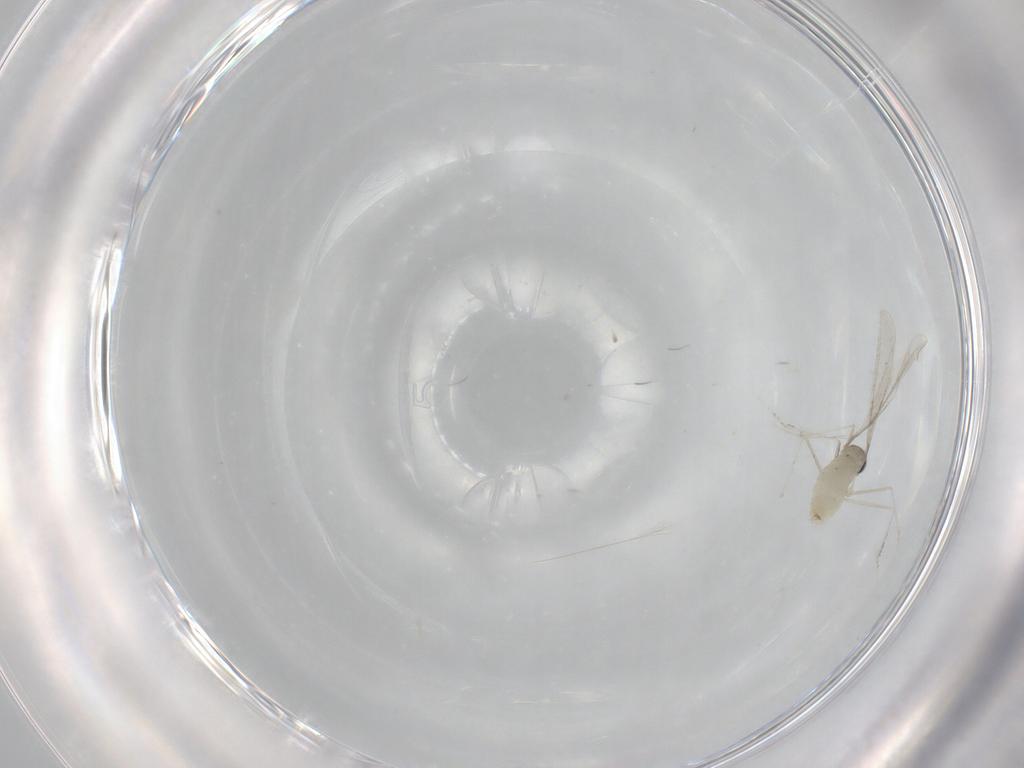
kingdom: Animalia
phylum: Arthropoda
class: Insecta
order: Diptera
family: Cecidomyiidae
